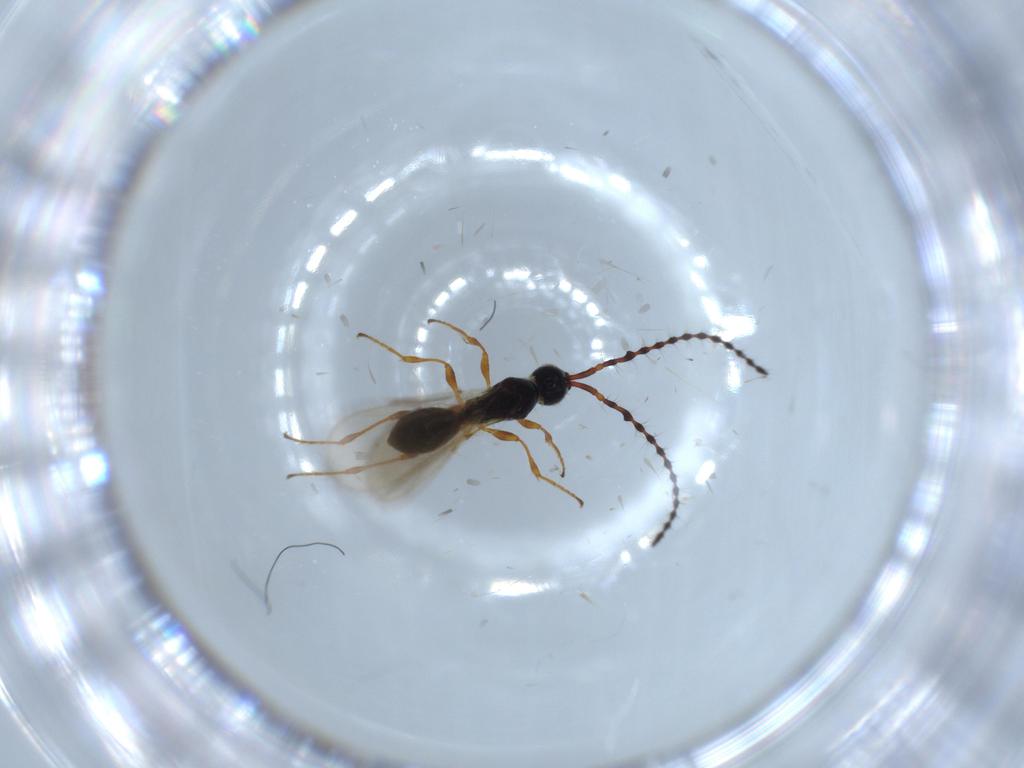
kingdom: Animalia
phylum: Arthropoda
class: Insecta
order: Hymenoptera
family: Diapriidae
